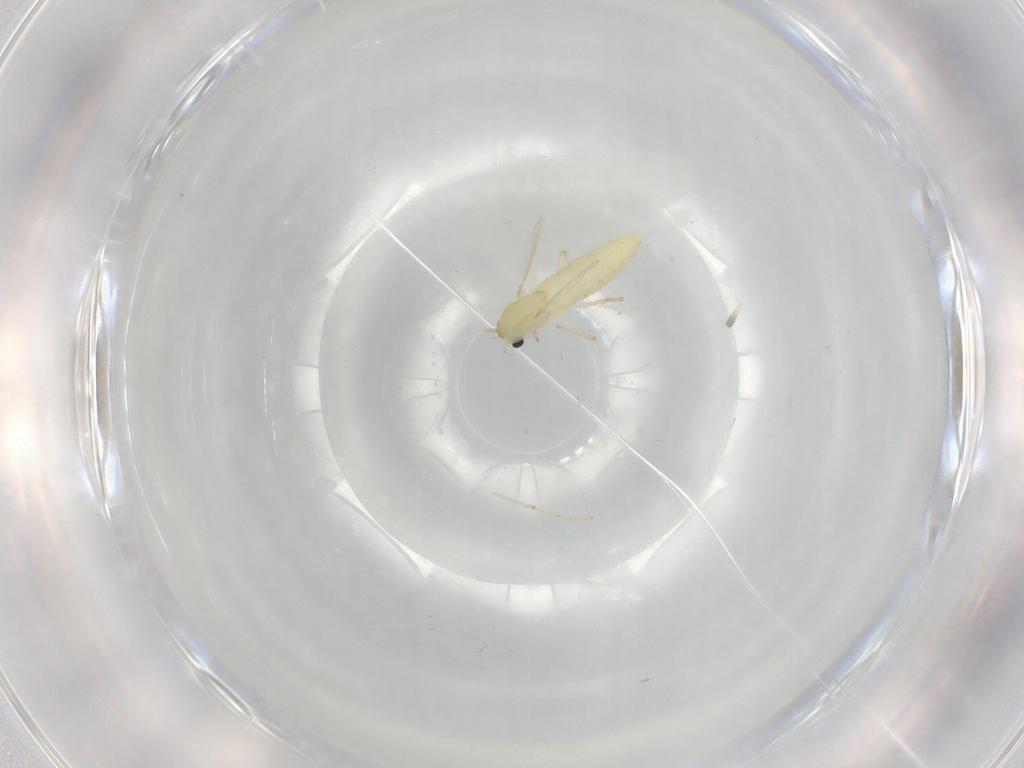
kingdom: Animalia
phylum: Arthropoda
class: Insecta
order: Diptera
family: Chironomidae
